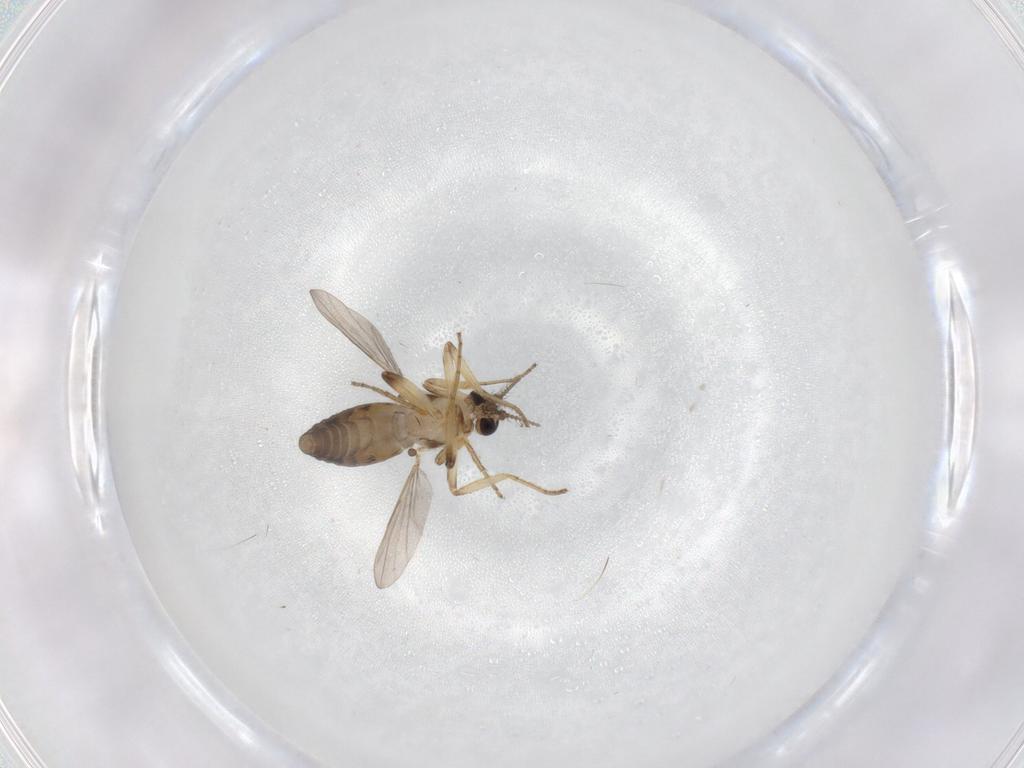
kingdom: Animalia
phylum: Arthropoda
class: Insecta
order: Diptera
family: Ceratopogonidae
